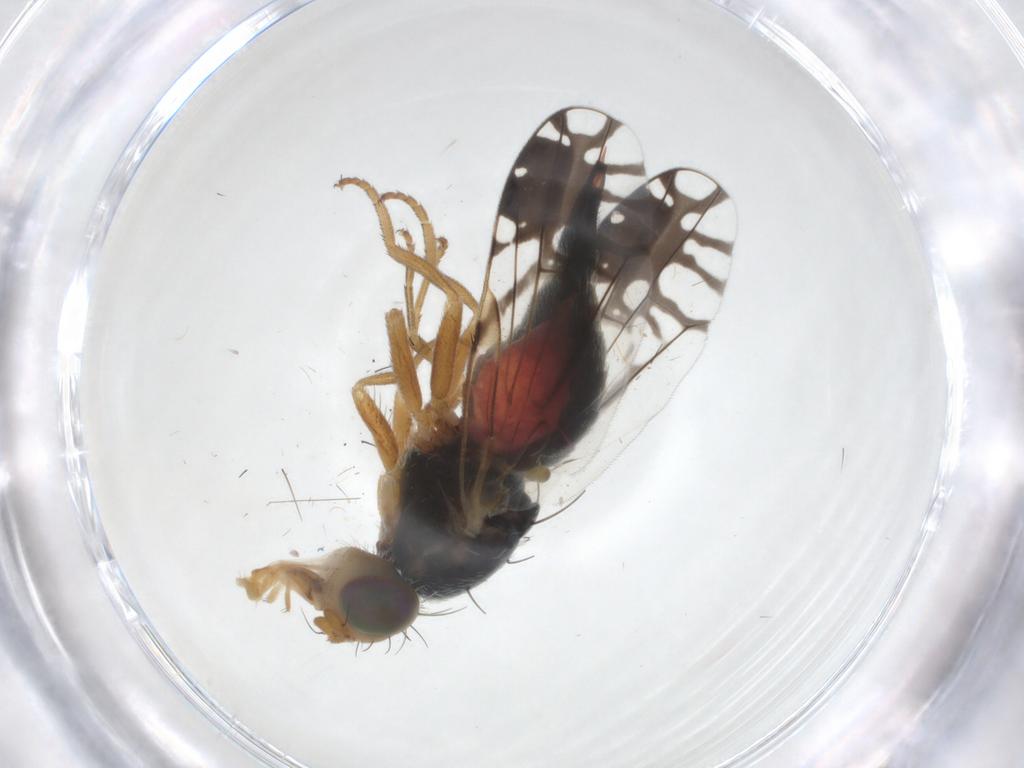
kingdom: Animalia
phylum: Arthropoda
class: Insecta
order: Diptera
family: Tephritidae
